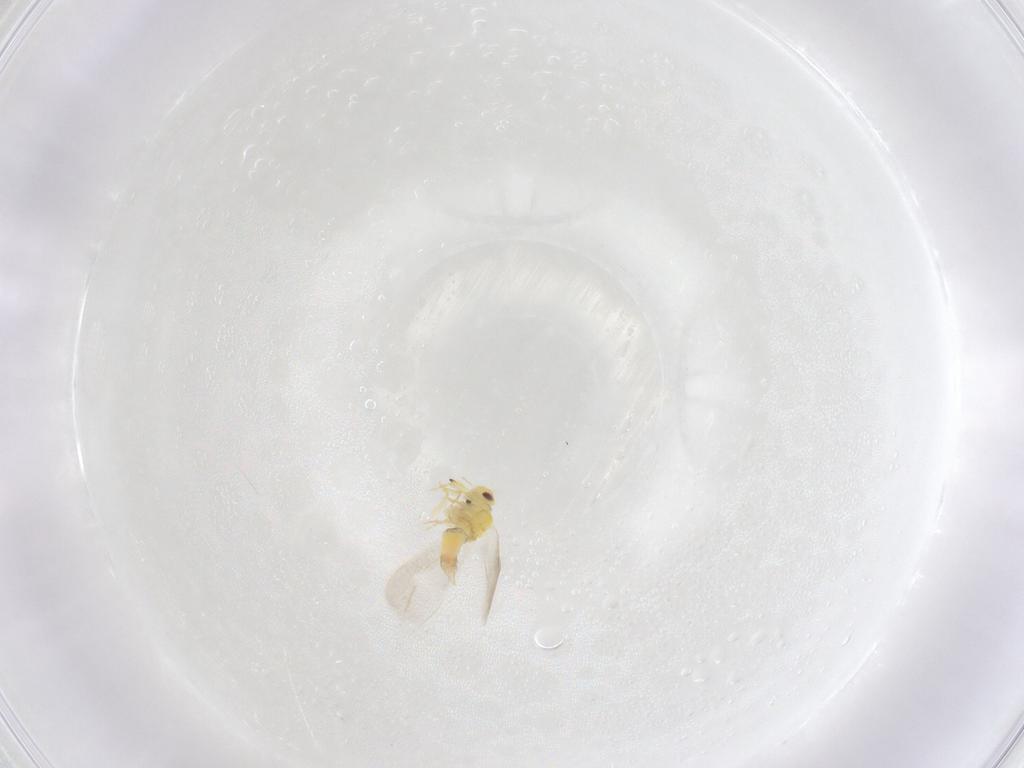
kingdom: Animalia
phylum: Arthropoda
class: Insecta
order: Hemiptera
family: Aleyrodidae
